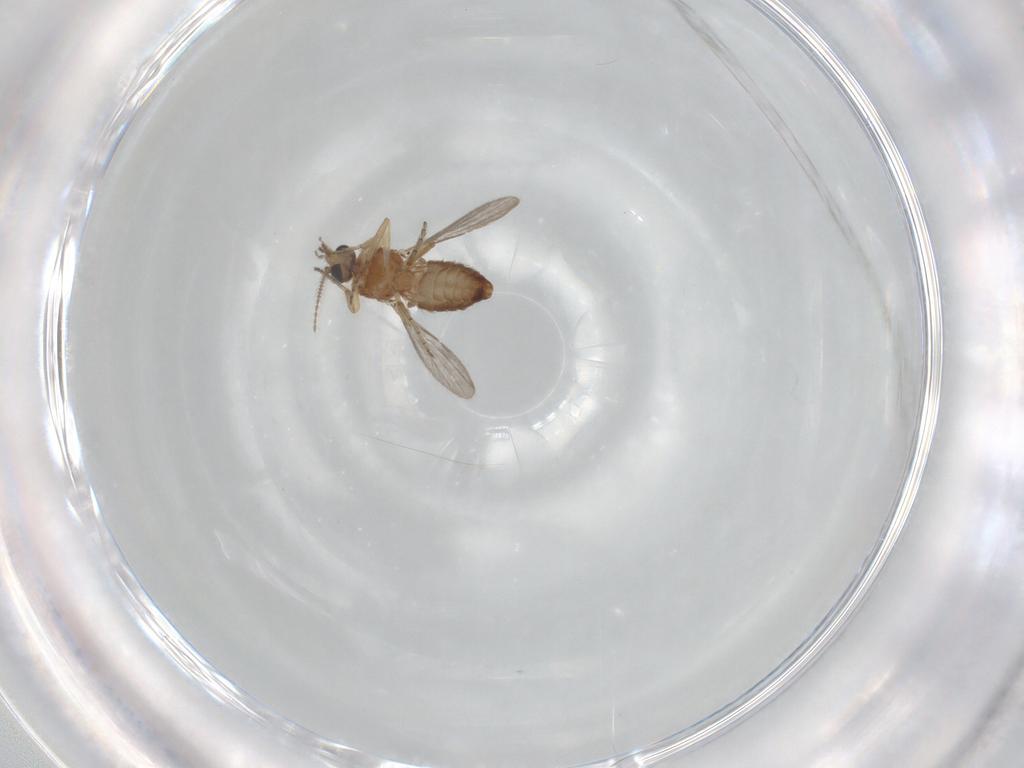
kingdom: Animalia
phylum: Arthropoda
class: Insecta
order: Diptera
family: Ceratopogonidae
